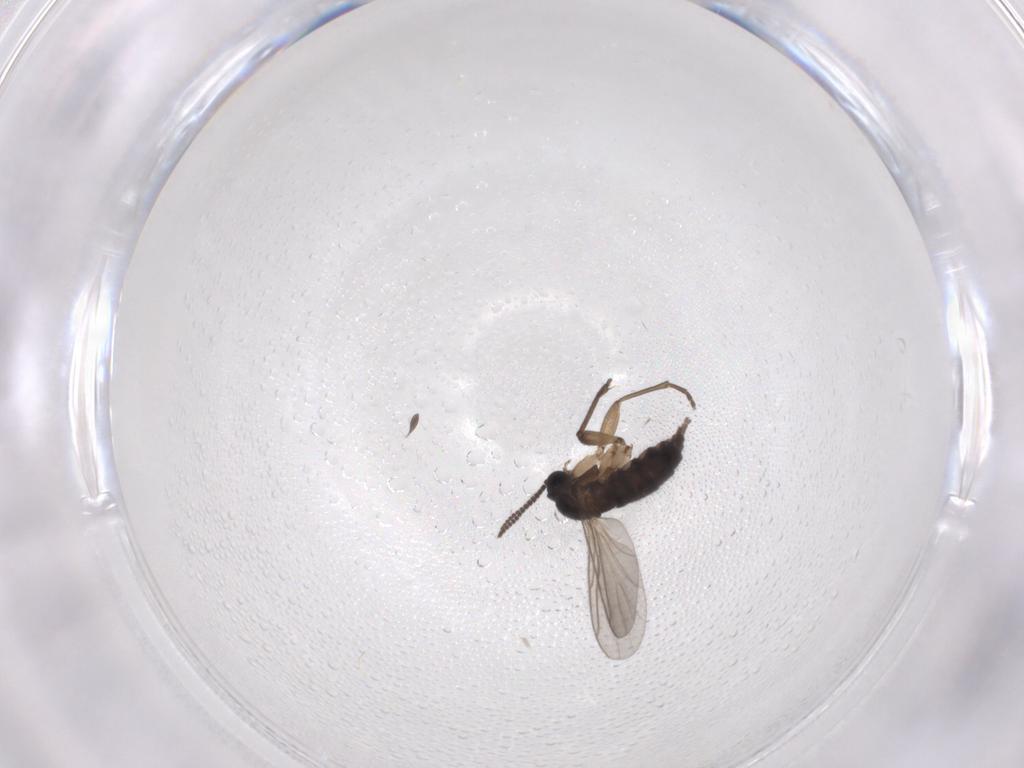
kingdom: Animalia
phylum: Arthropoda
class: Insecta
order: Diptera
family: Sciaridae
